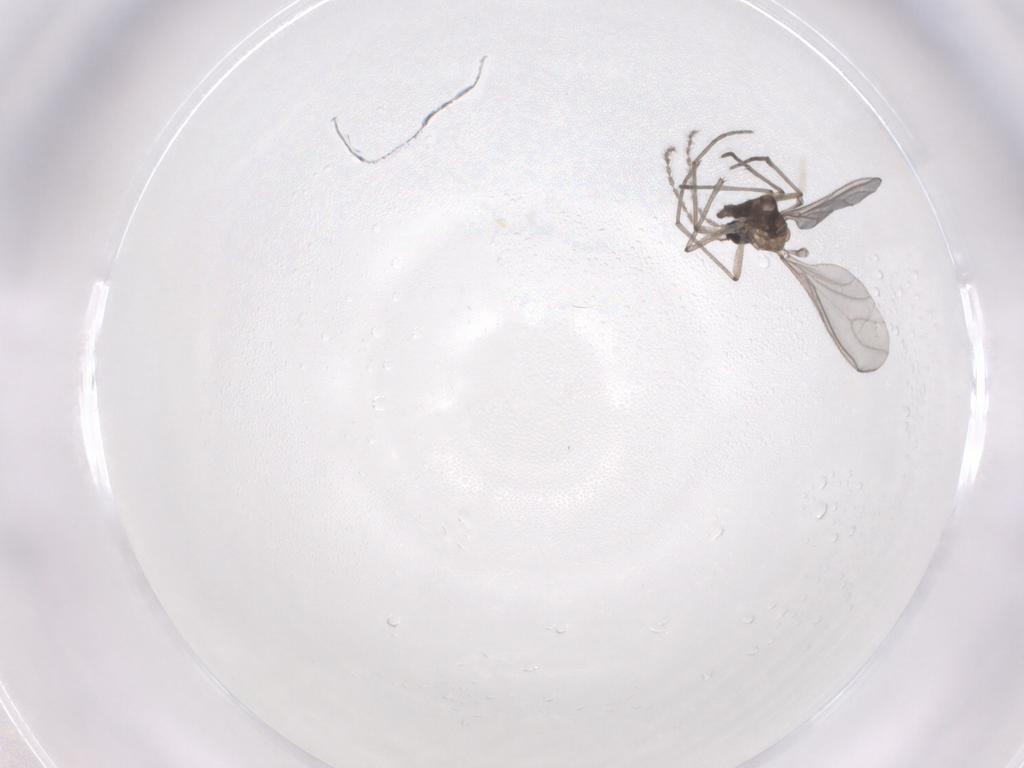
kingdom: Animalia
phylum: Arthropoda
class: Insecta
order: Diptera
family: Sciaridae
